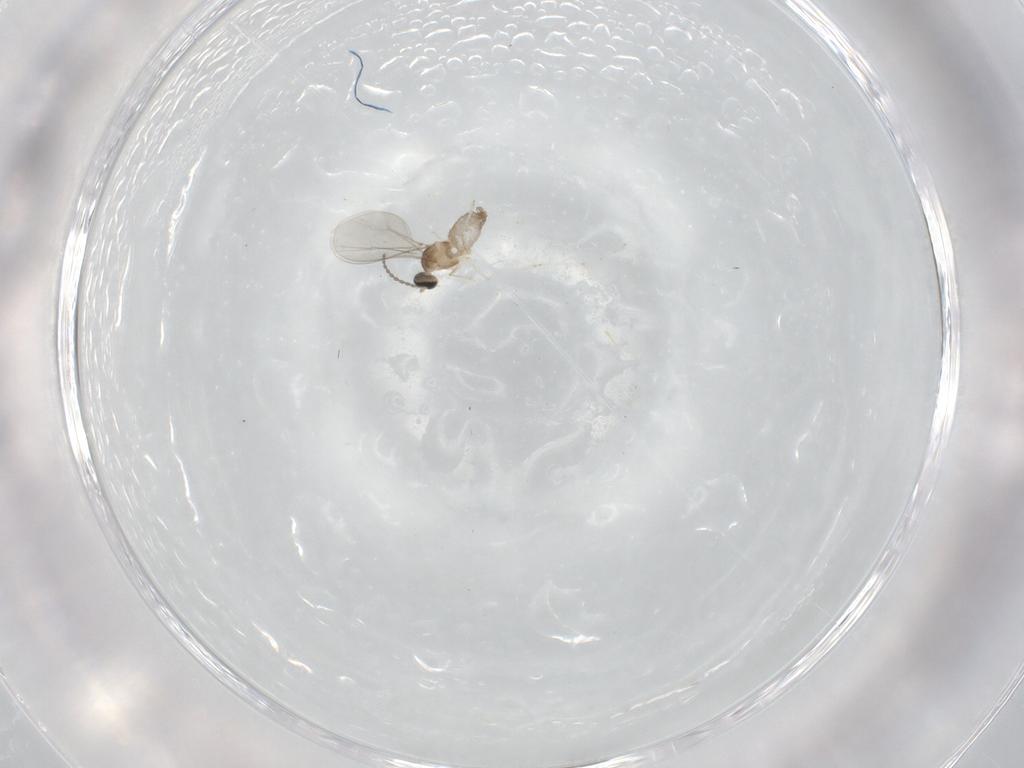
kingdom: Animalia
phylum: Arthropoda
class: Insecta
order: Diptera
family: Cecidomyiidae
